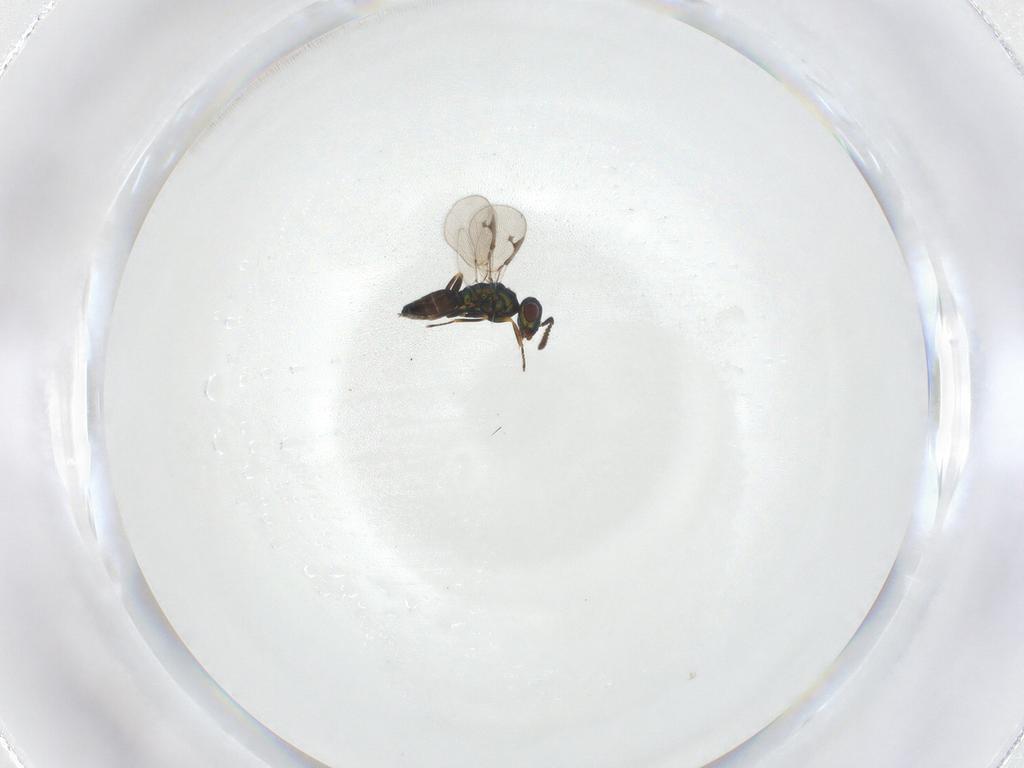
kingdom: Animalia
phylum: Arthropoda
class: Insecta
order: Hymenoptera
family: Pteromalidae
